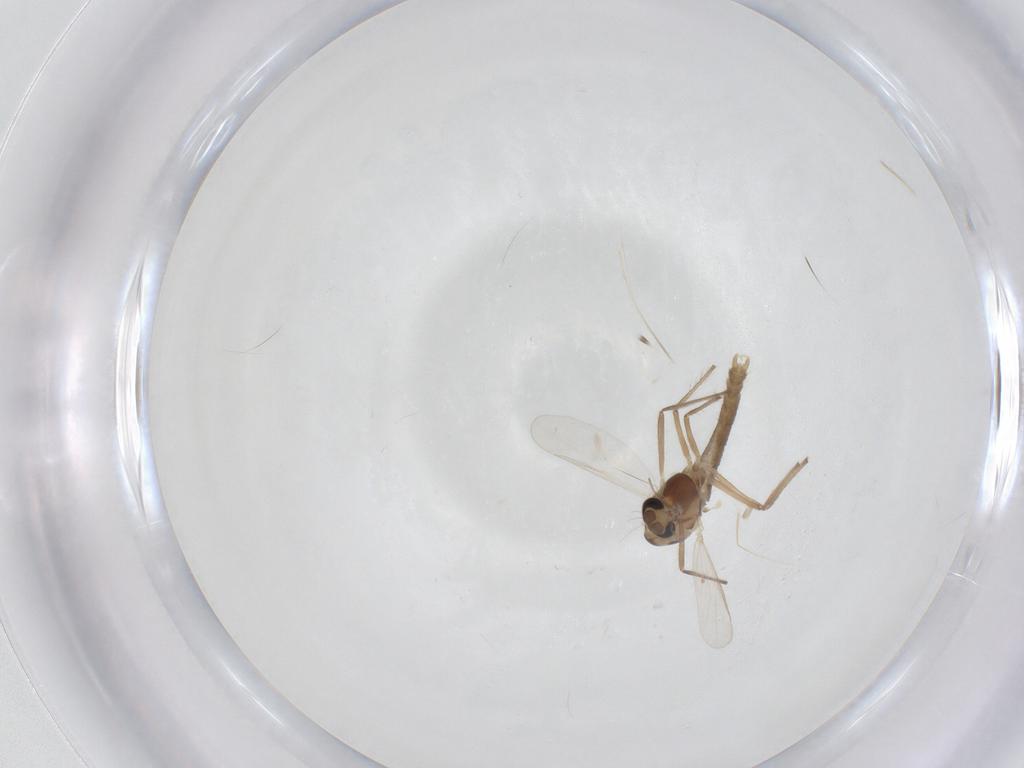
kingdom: Animalia
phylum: Arthropoda
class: Insecta
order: Diptera
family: Chironomidae
